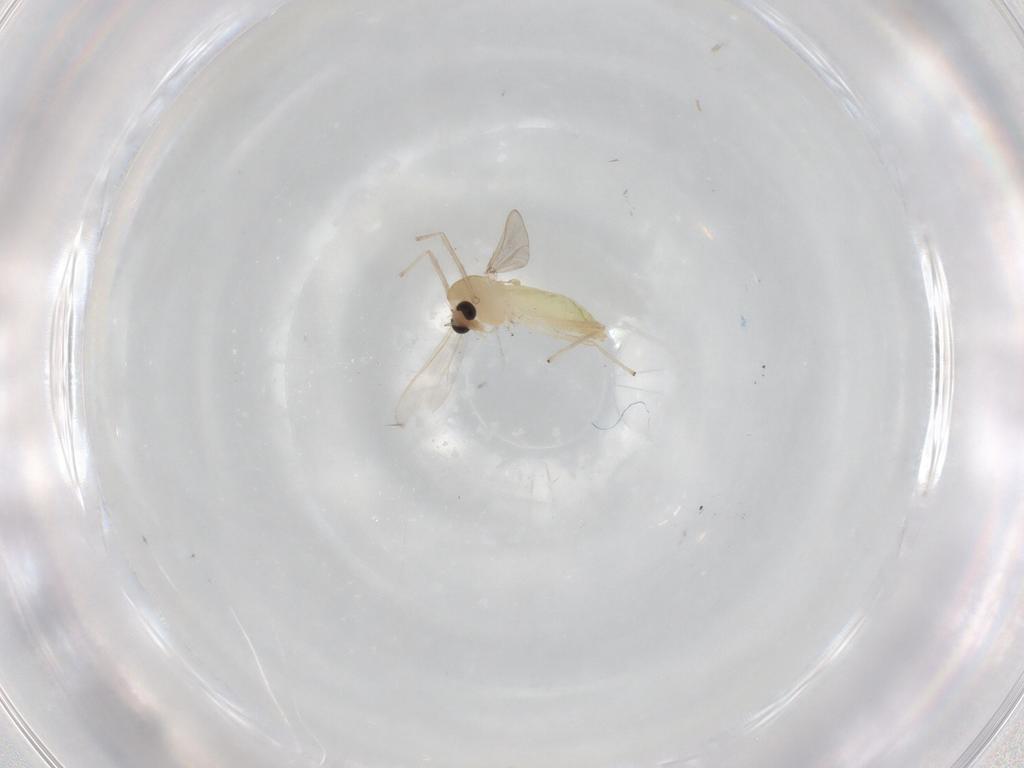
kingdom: Animalia
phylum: Arthropoda
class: Insecta
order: Diptera
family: Chironomidae
